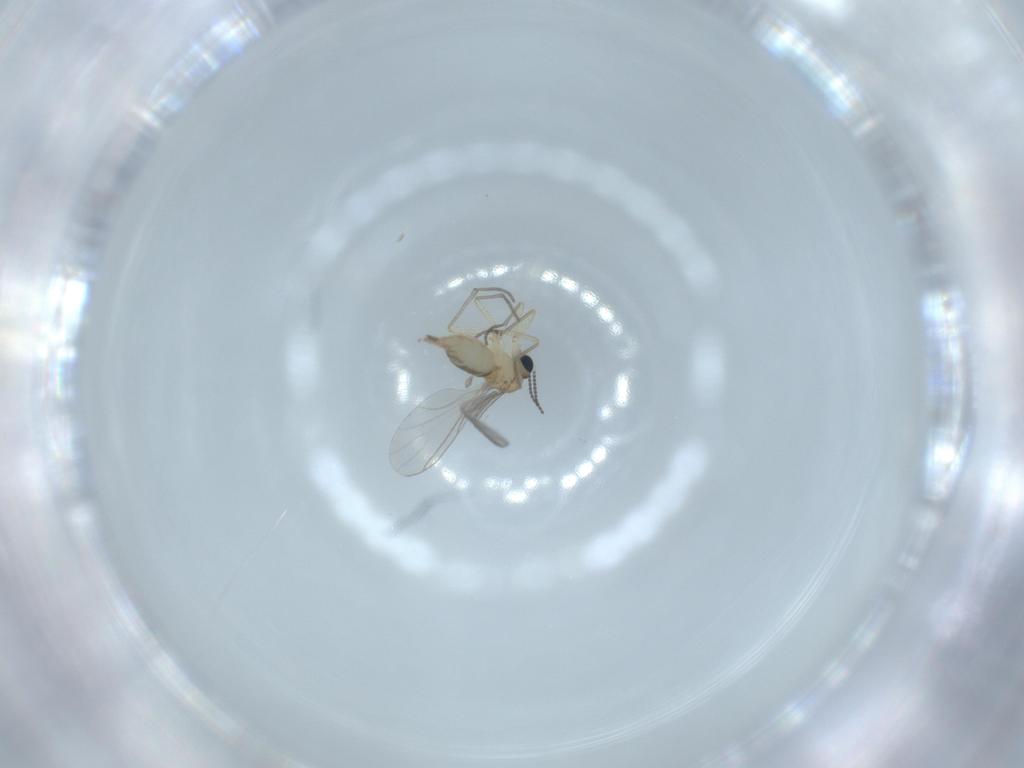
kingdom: Animalia
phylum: Arthropoda
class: Insecta
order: Diptera
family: Sciaridae
